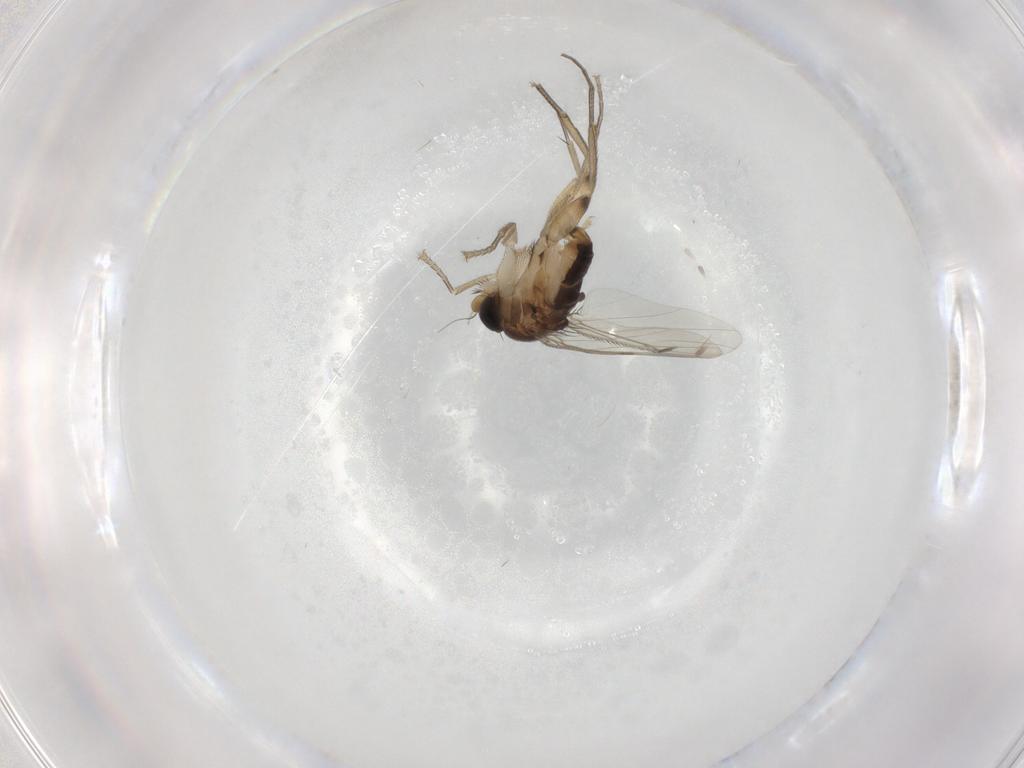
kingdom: Animalia
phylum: Arthropoda
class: Insecta
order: Diptera
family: Phoridae
